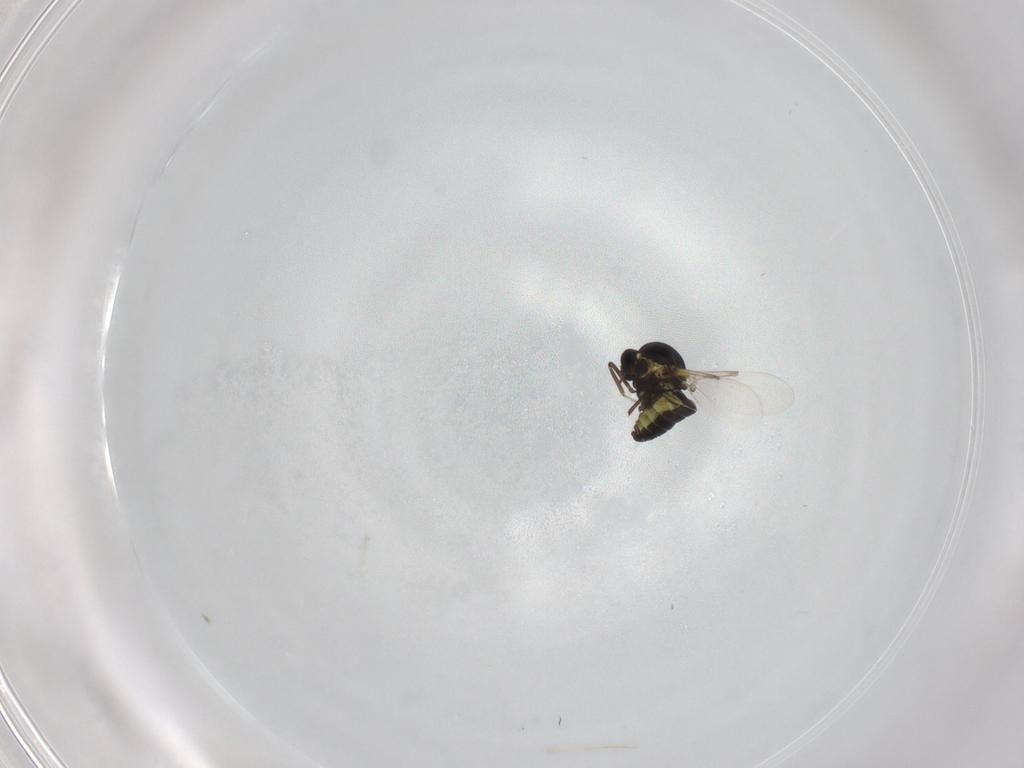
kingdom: Animalia
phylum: Arthropoda
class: Insecta
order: Diptera
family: Ceratopogonidae
